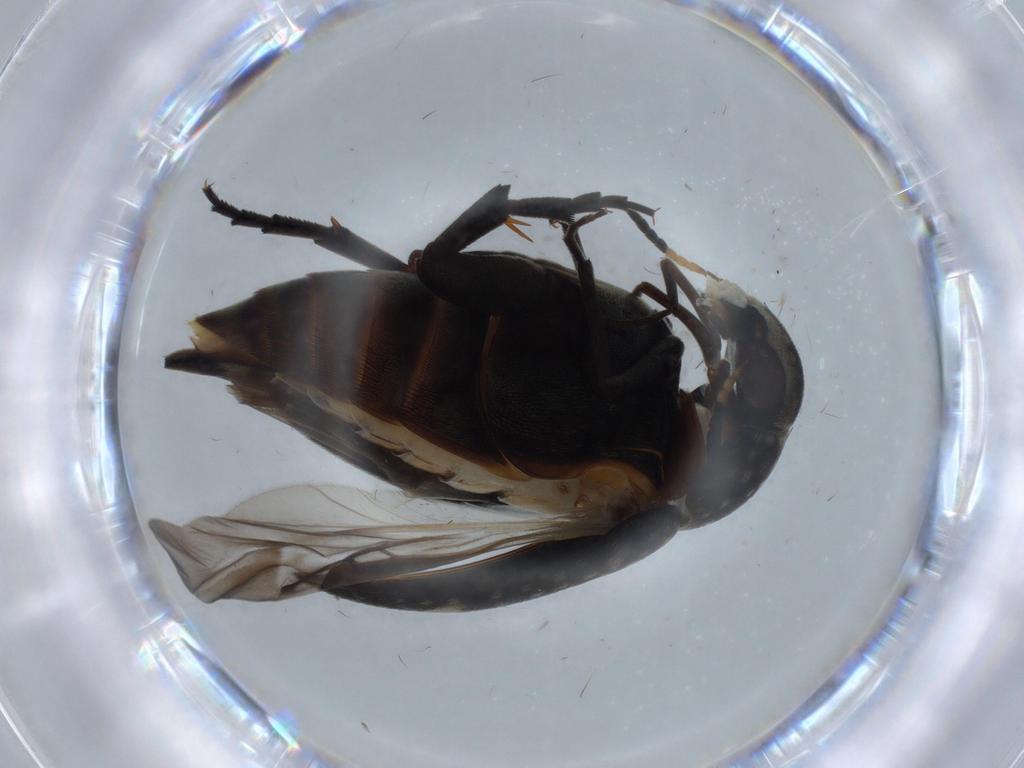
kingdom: Animalia
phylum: Arthropoda
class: Insecta
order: Coleoptera
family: Mordellidae
